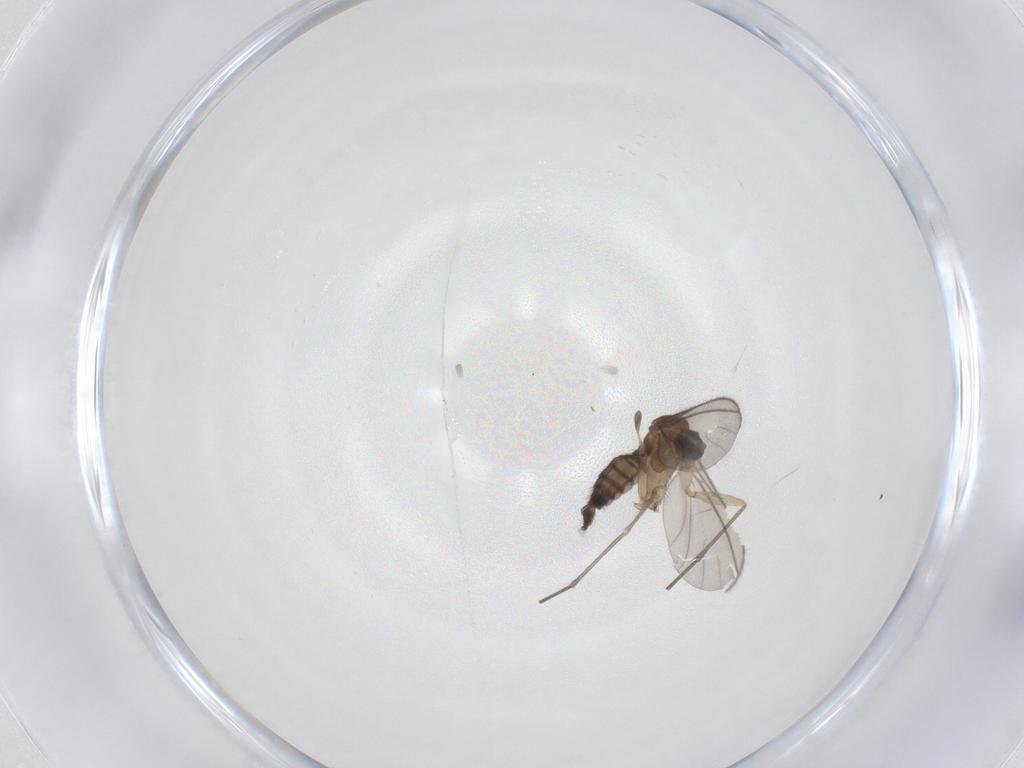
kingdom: Animalia
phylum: Arthropoda
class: Insecta
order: Diptera
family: Sciaridae
